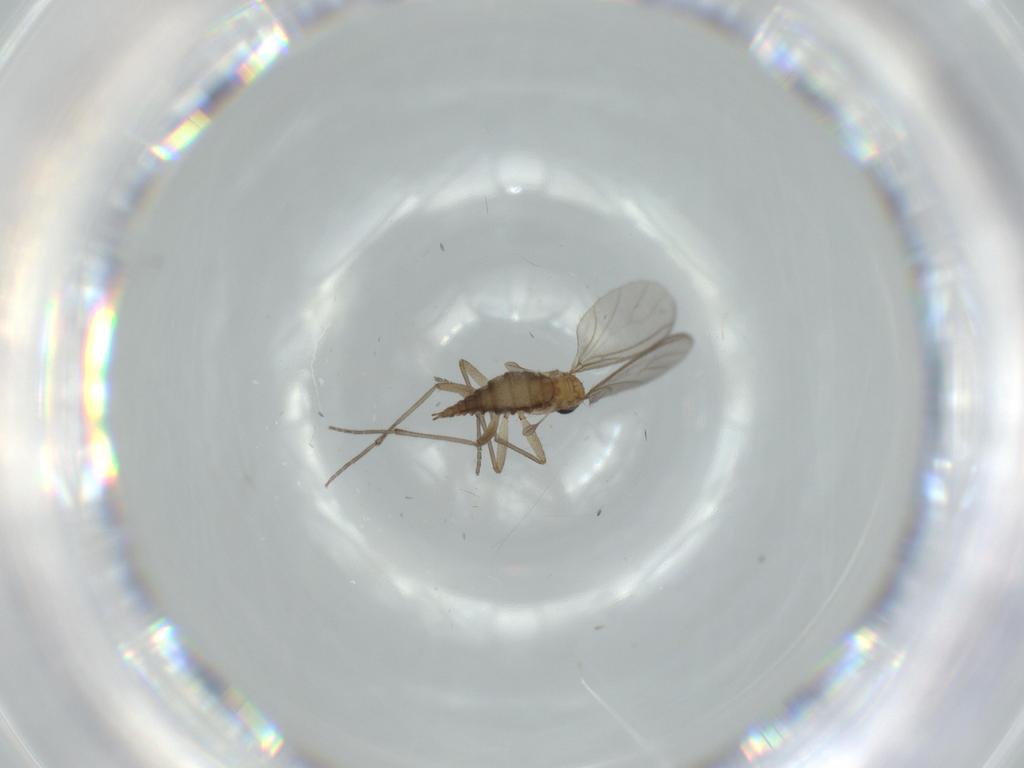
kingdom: Animalia
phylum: Arthropoda
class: Insecta
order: Diptera
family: Sciaridae
